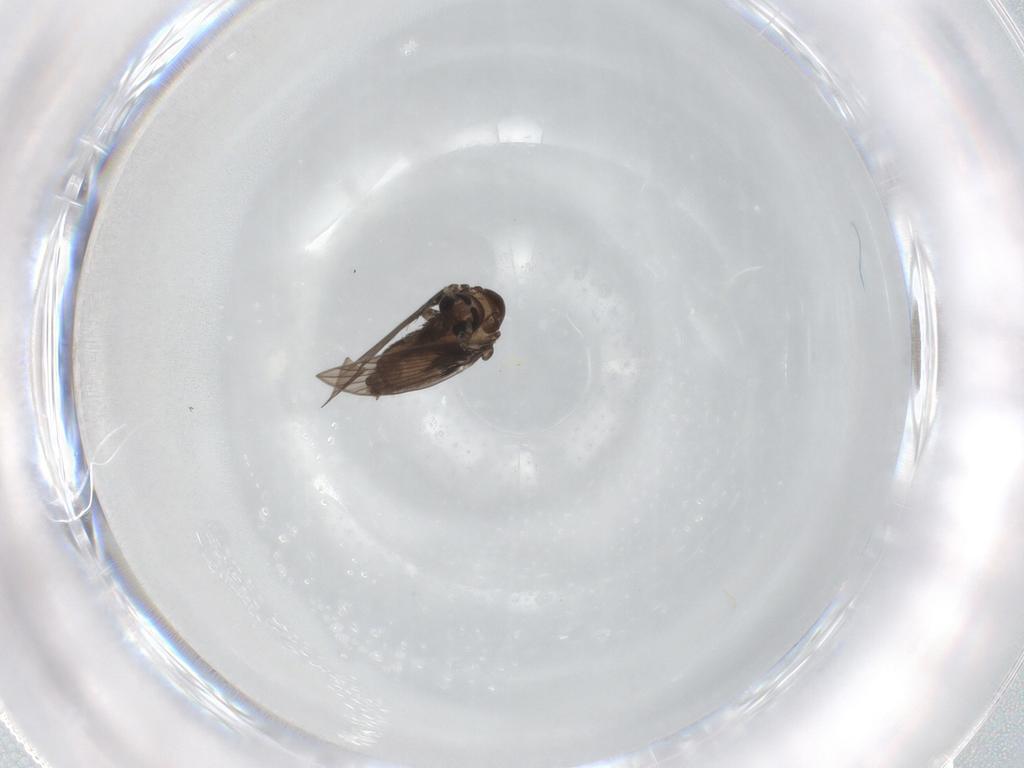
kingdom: Animalia
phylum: Arthropoda
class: Insecta
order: Diptera
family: Psychodidae
